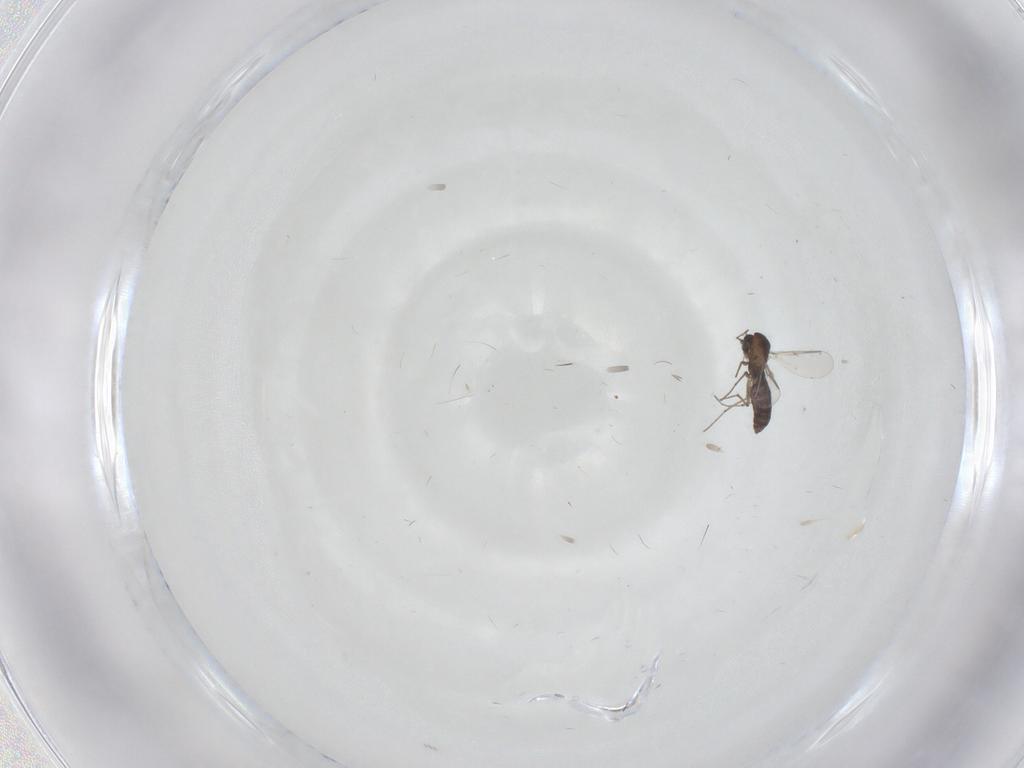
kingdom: Animalia
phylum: Arthropoda
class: Insecta
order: Diptera
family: Chironomidae
